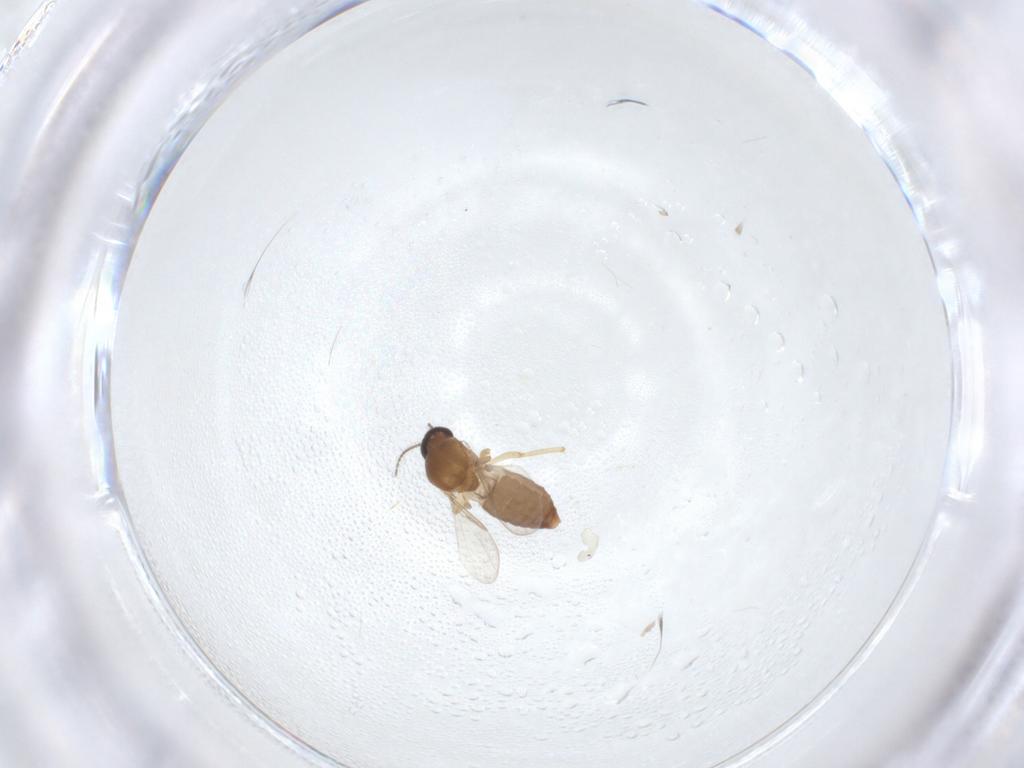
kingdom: Animalia
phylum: Arthropoda
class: Insecta
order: Diptera
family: Ceratopogonidae
